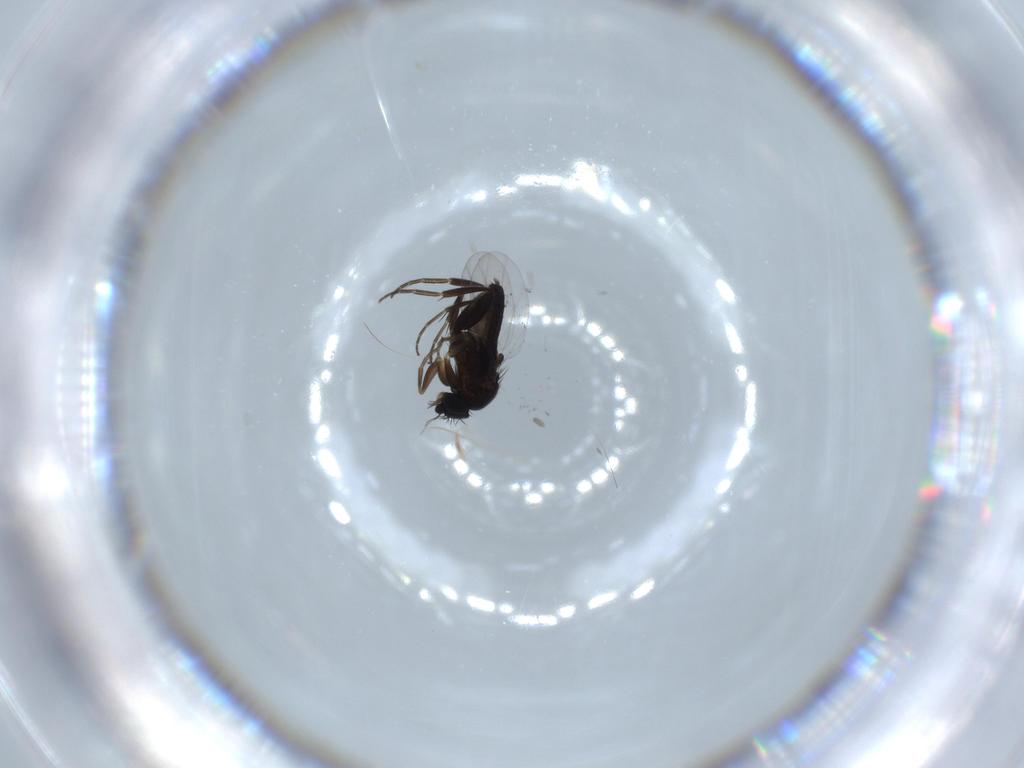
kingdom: Animalia
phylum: Arthropoda
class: Insecta
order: Diptera
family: Phoridae
